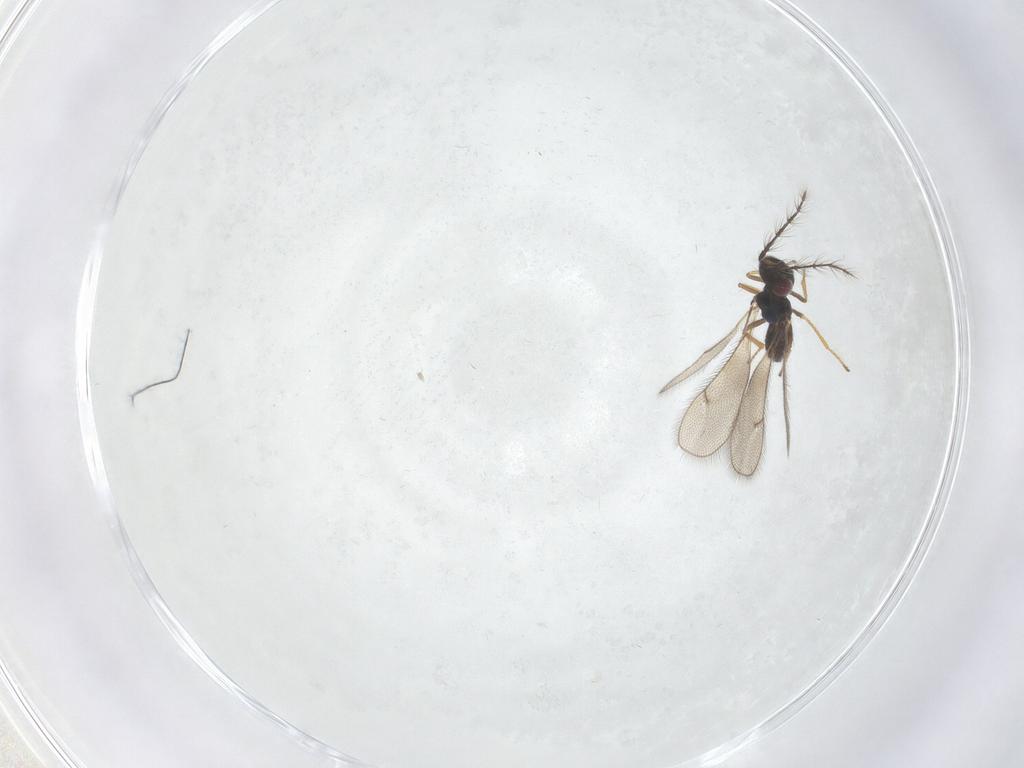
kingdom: Animalia
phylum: Arthropoda
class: Insecta
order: Hymenoptera
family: Eulophidae
